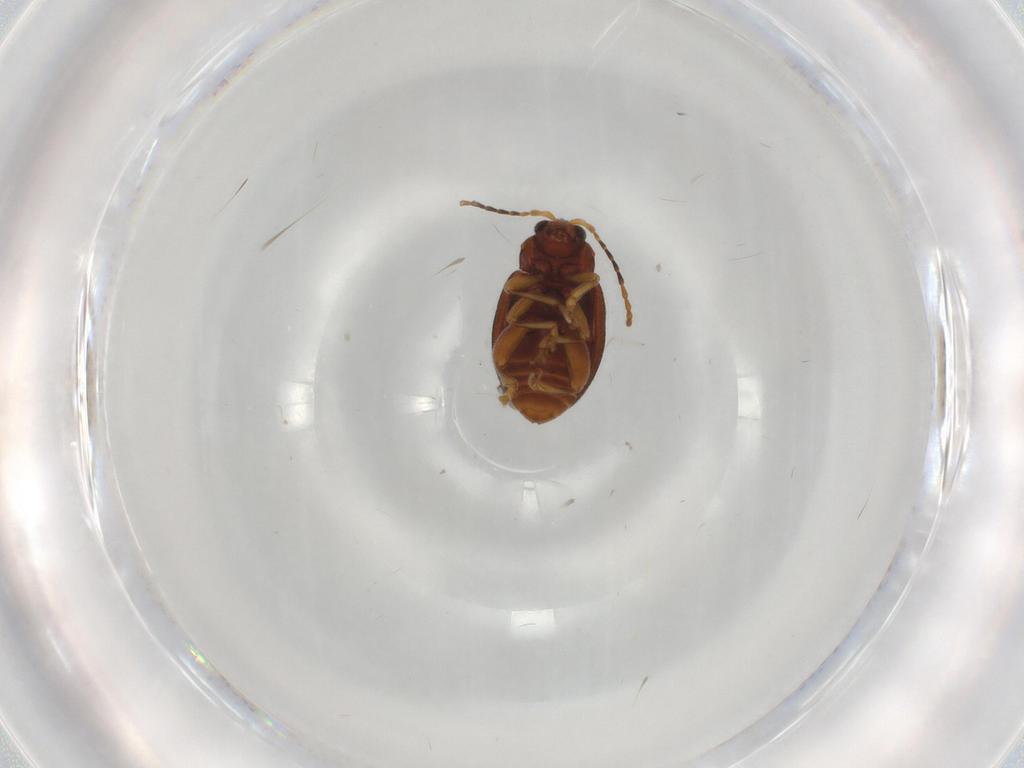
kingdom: Animalia
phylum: Arthropoda
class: Insecta
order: Coleoptera
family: Chrysomelidae
